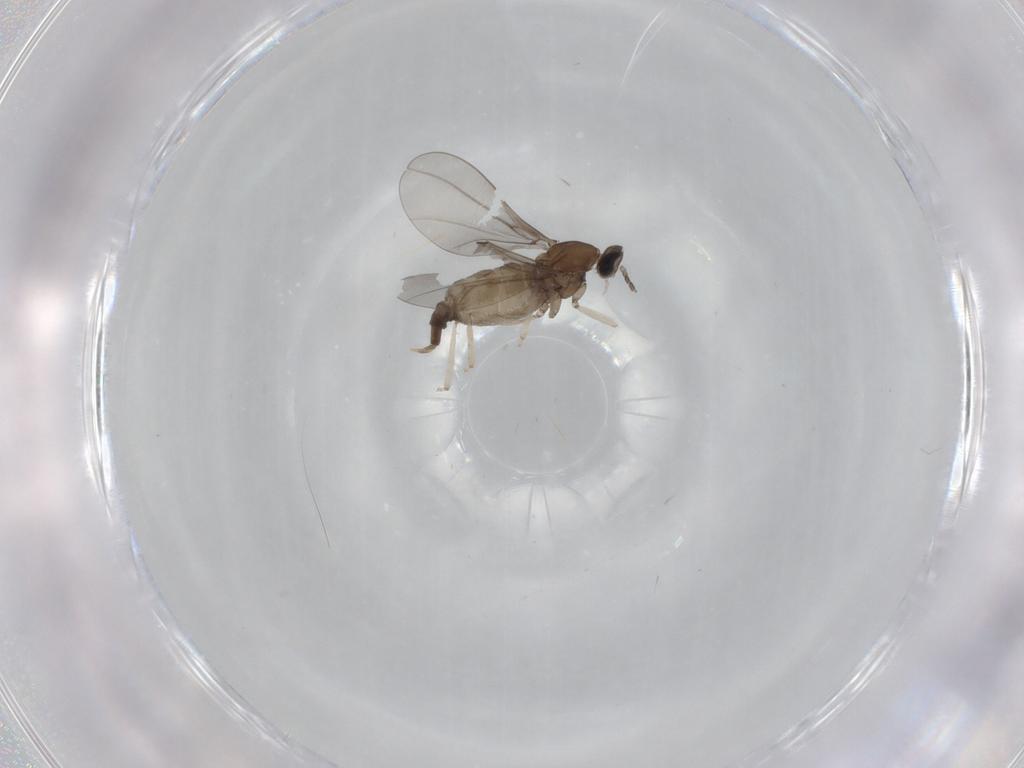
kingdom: Animalia
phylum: Arthropoda
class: Insecta
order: Diptera
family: Cecidomyiidae
